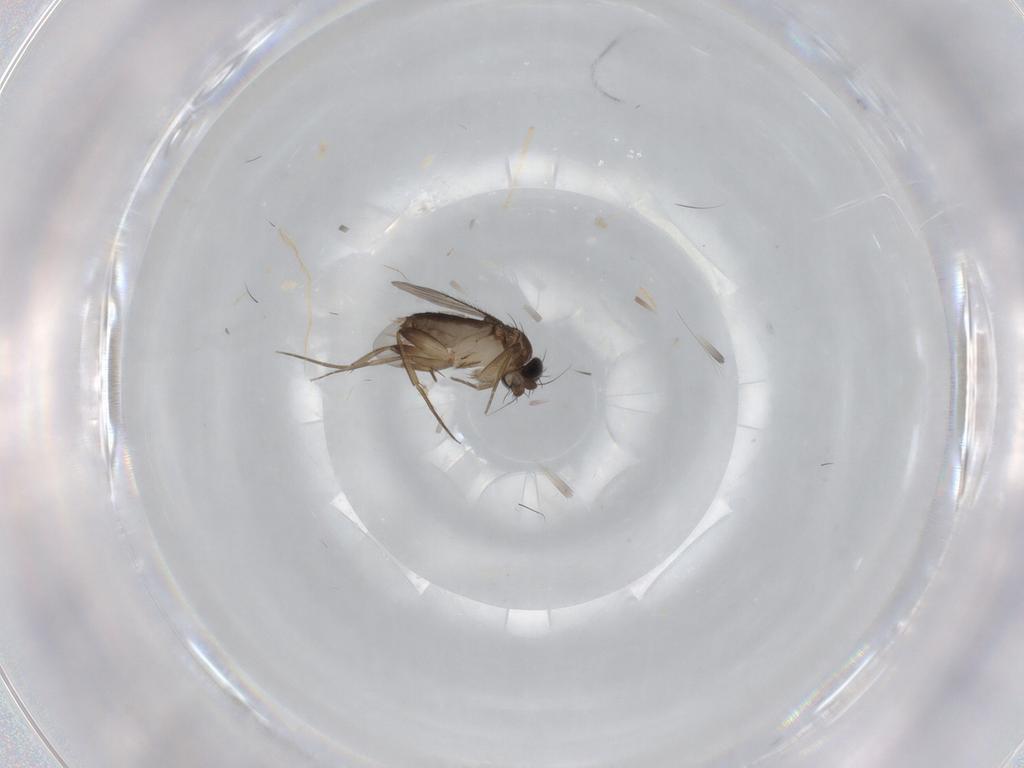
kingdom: Animalia
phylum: Arthropoda
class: Insecta
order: Diptera
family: Phoridae
